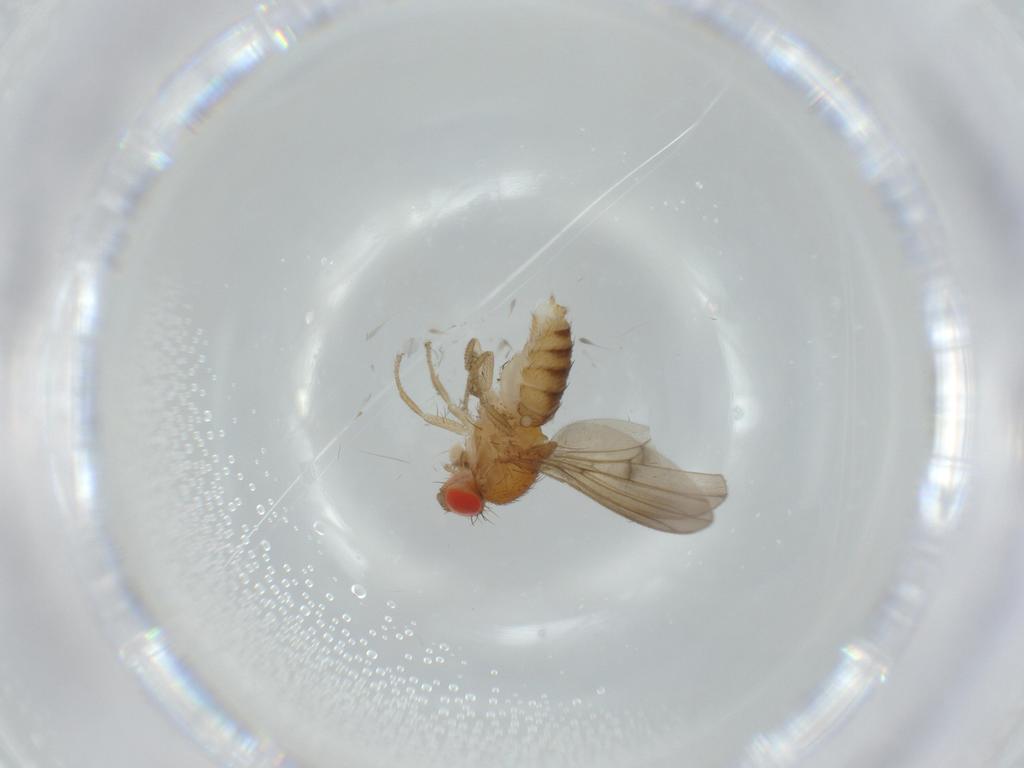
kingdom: Animalia
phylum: Arthropoda
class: Insecta
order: Diptera
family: Drosophilidae
